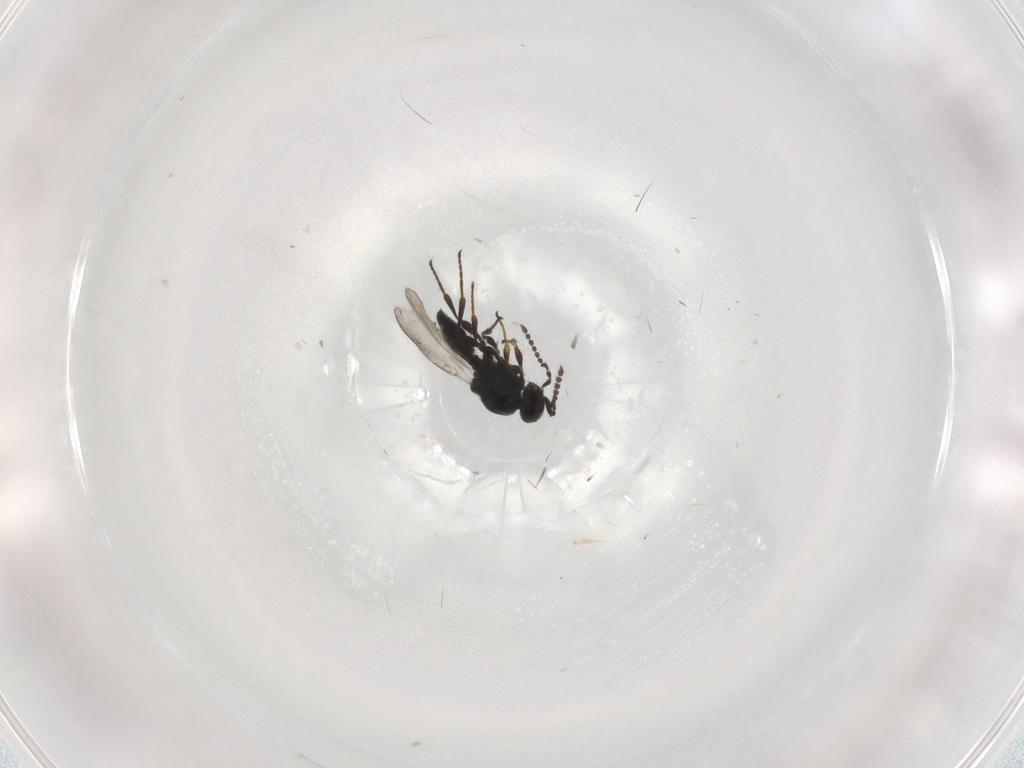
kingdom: Animalia
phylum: Arthropoda
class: Insecta
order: Hymenoptera
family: Platygastridae
